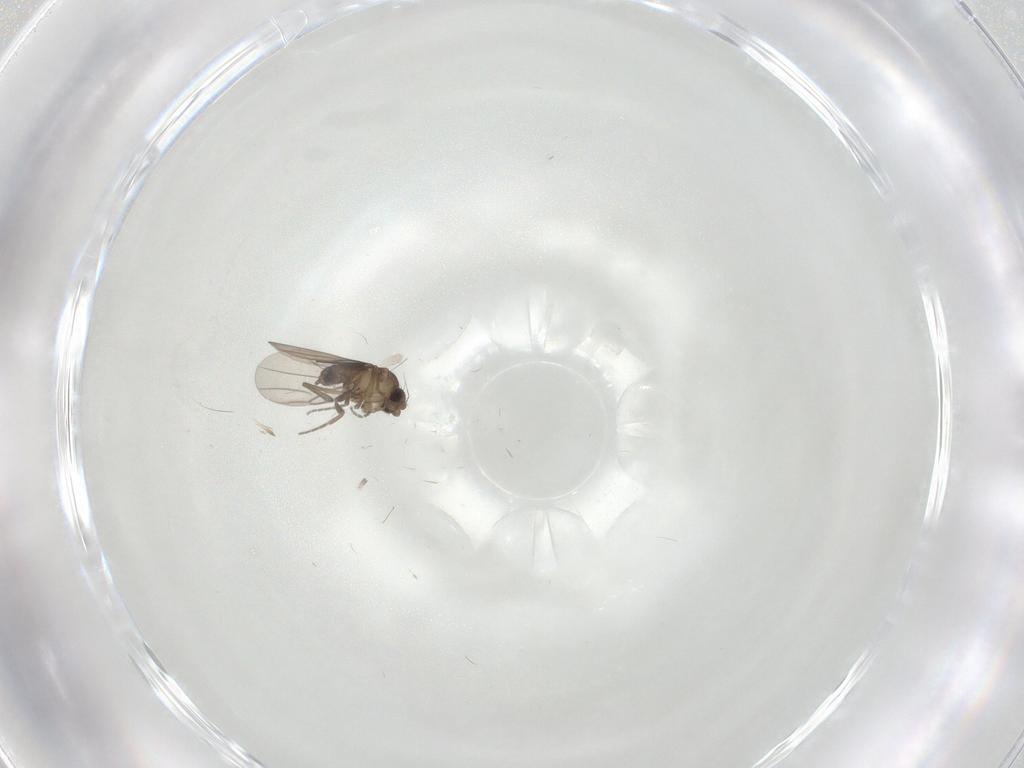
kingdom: Animalia
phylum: Arthropoda
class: Insecta
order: Diptera
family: Phoridae
